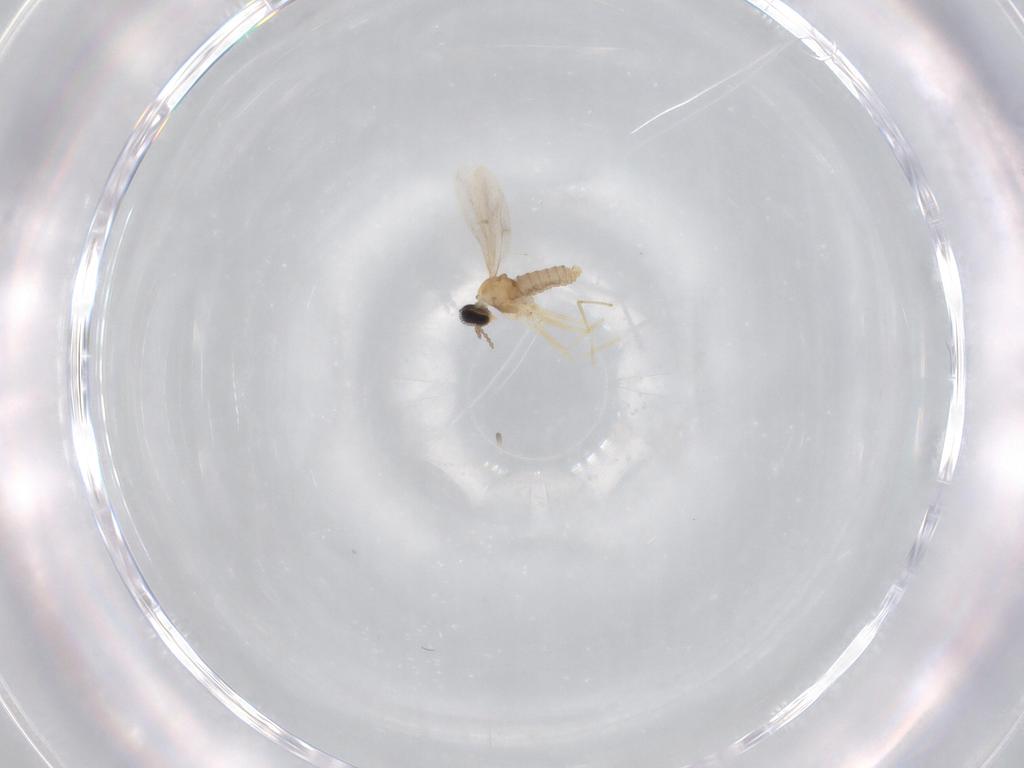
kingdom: Animalia
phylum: Arthropoda
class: Insecta
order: Diptera
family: Cecidomyiidae
